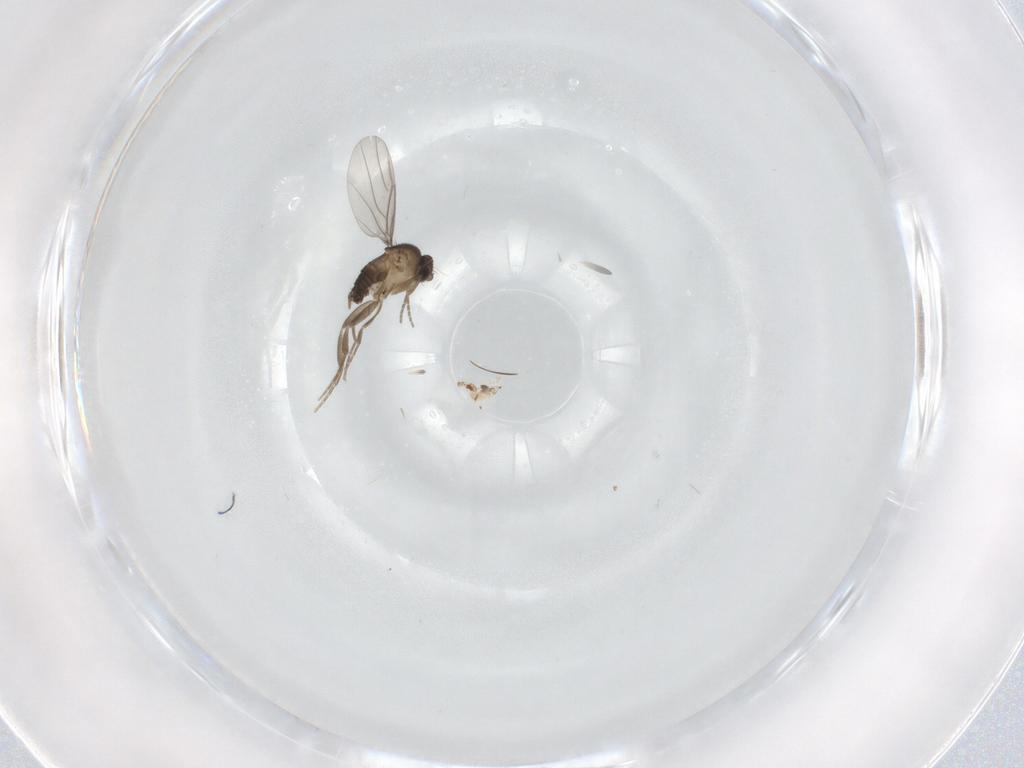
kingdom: Animalia
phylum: Arthropoda
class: Insecta
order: Diptera
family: Phoridae
